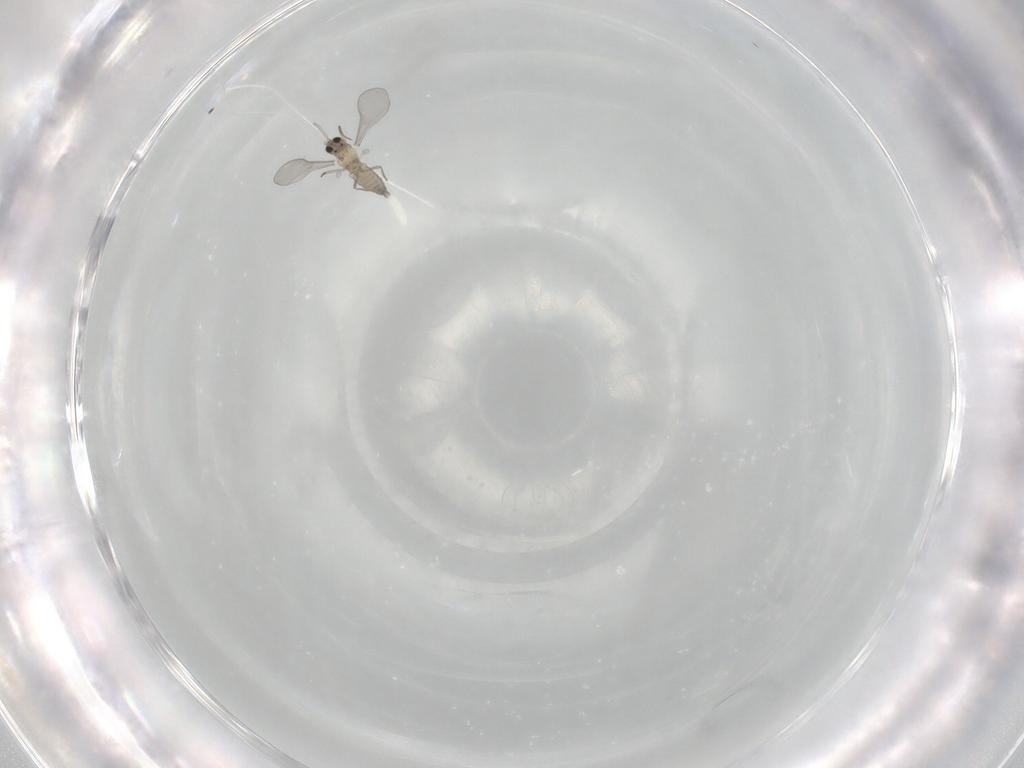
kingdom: Animalia
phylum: Arthropoda
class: Insecta
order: Diptera
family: Cecidomyiidae
